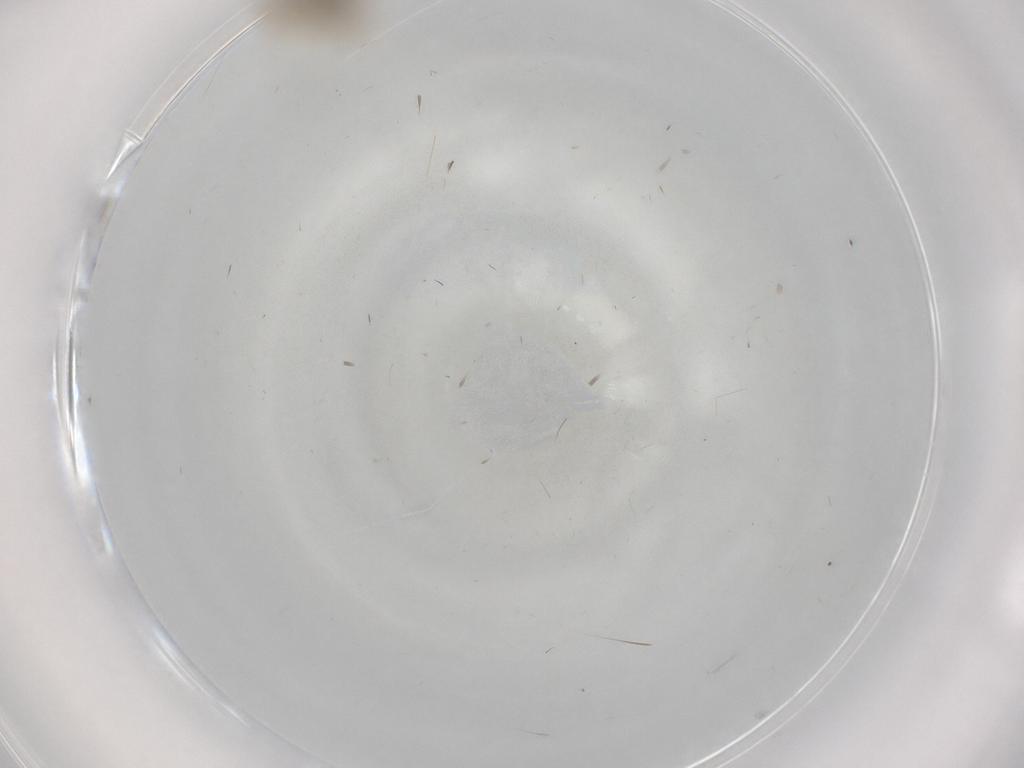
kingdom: Animalia
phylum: Arthropoda
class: Insecta
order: Diptera
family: Cecidomyiidae
